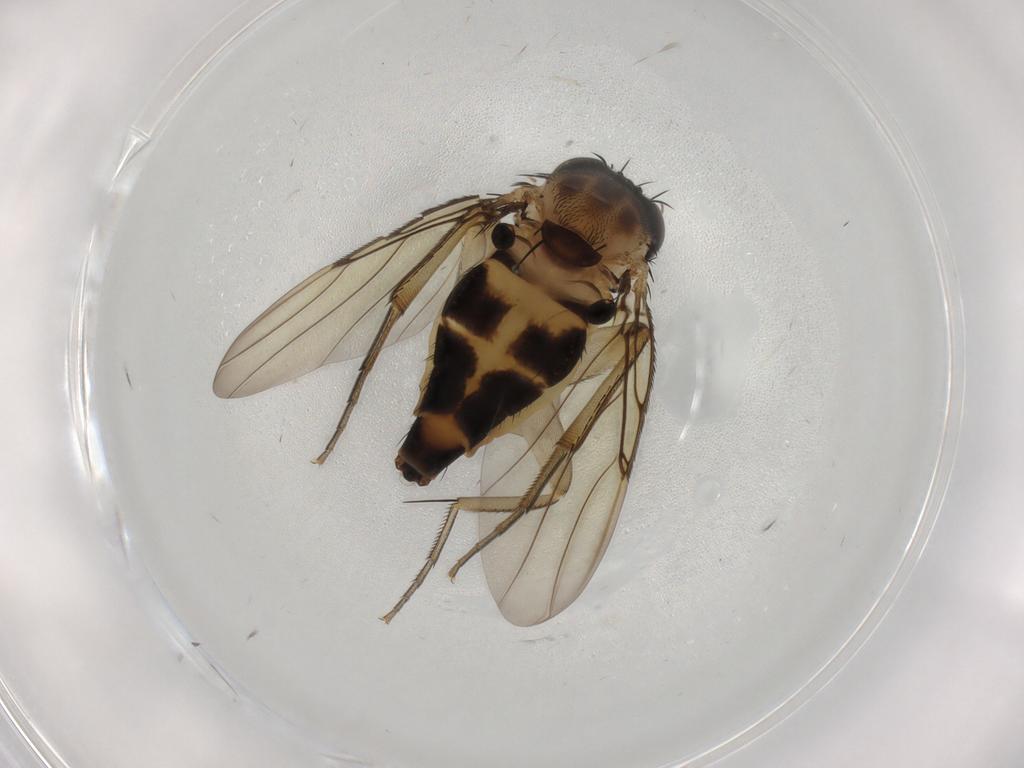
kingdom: Animalia
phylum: Arthropoda
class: Insecta
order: Diptera
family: Phoridae
